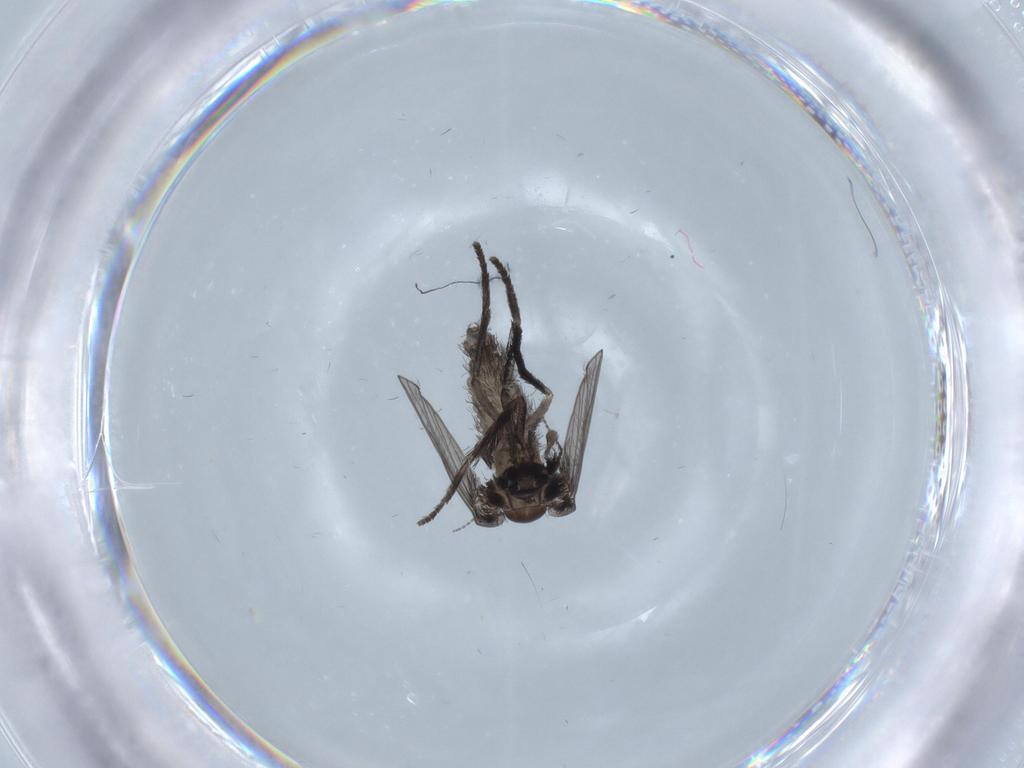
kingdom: Animalia
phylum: Arthropoda
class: Insecta
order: Diptera
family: Psychodidae
